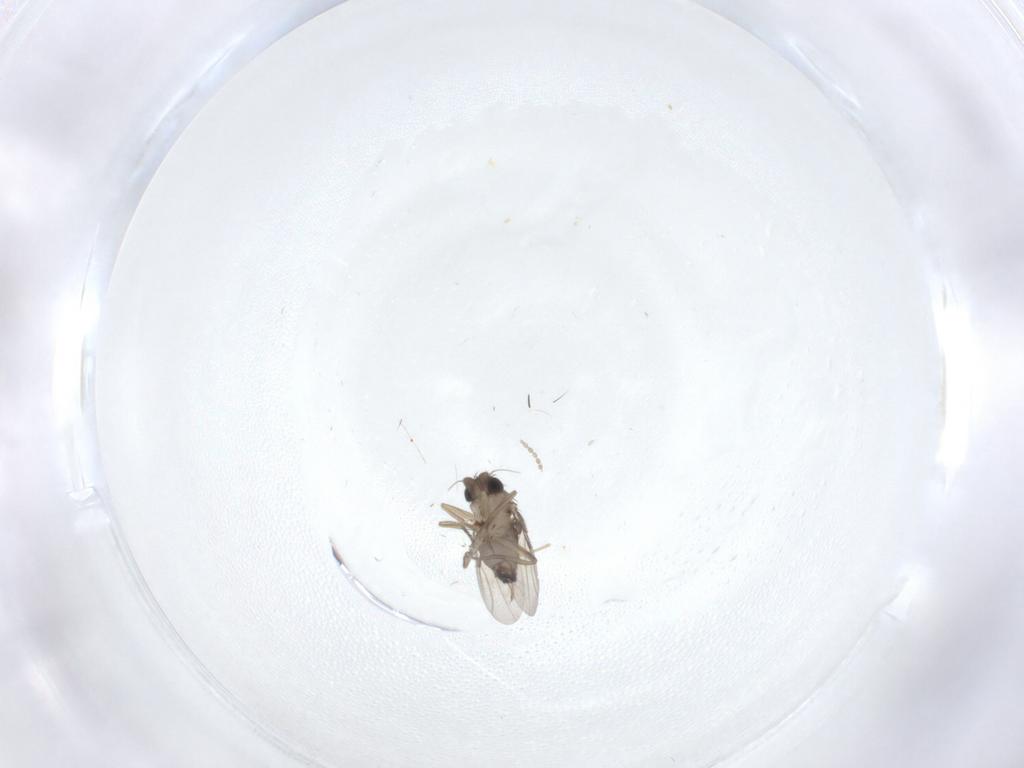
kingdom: Animalia
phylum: Arthropoda
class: Insecta
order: Diptera
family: Phoridae
